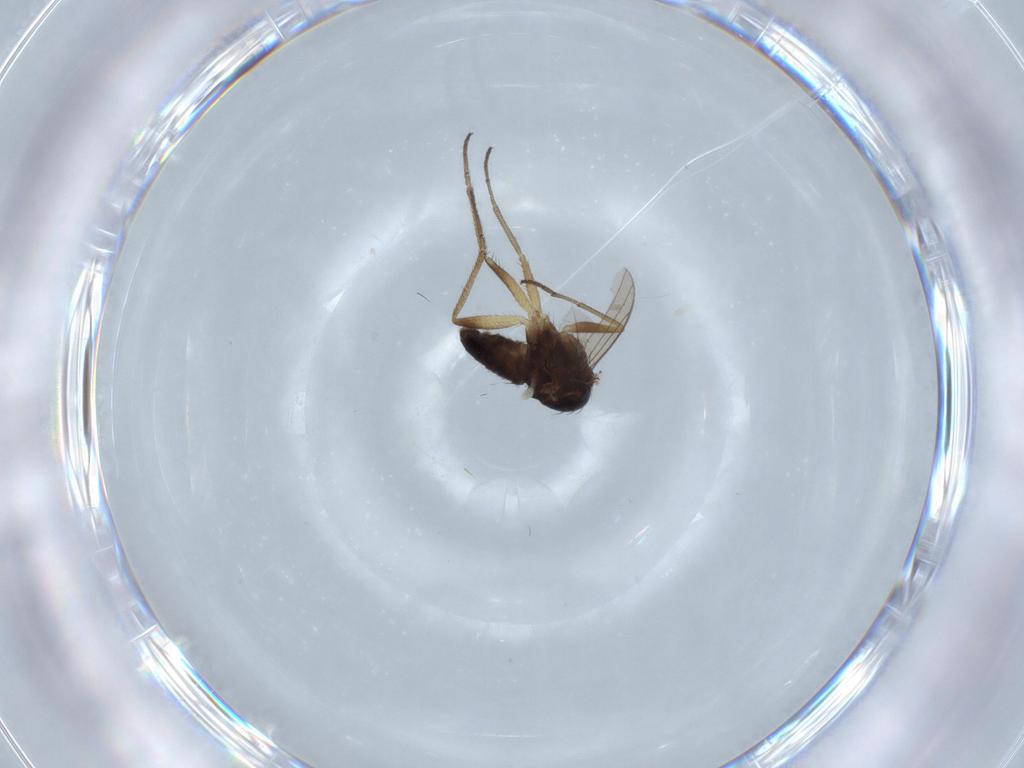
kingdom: Animalia
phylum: Arthropoda
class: Insecta
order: Diptera
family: Dolichopodidae
